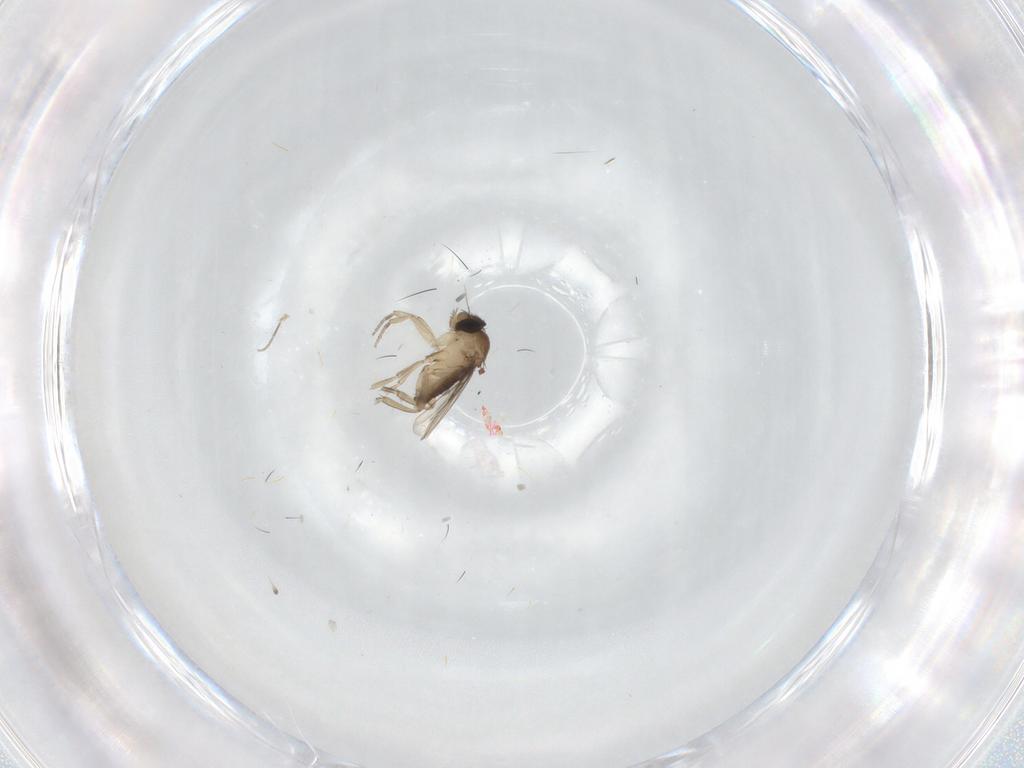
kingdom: Animalia
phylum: Arthropoda
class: Insecta
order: Diptera
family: Phoridae
